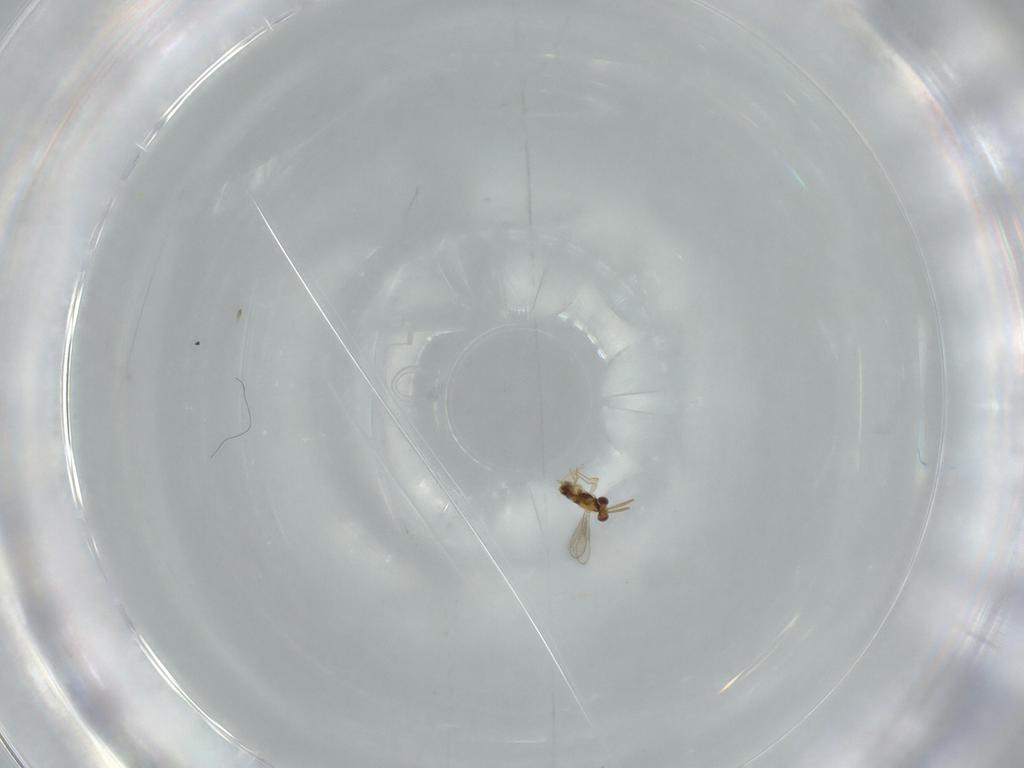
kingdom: Animalia
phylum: Arthropoda
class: Insecta
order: Hymenoptera
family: Aphelinidae
